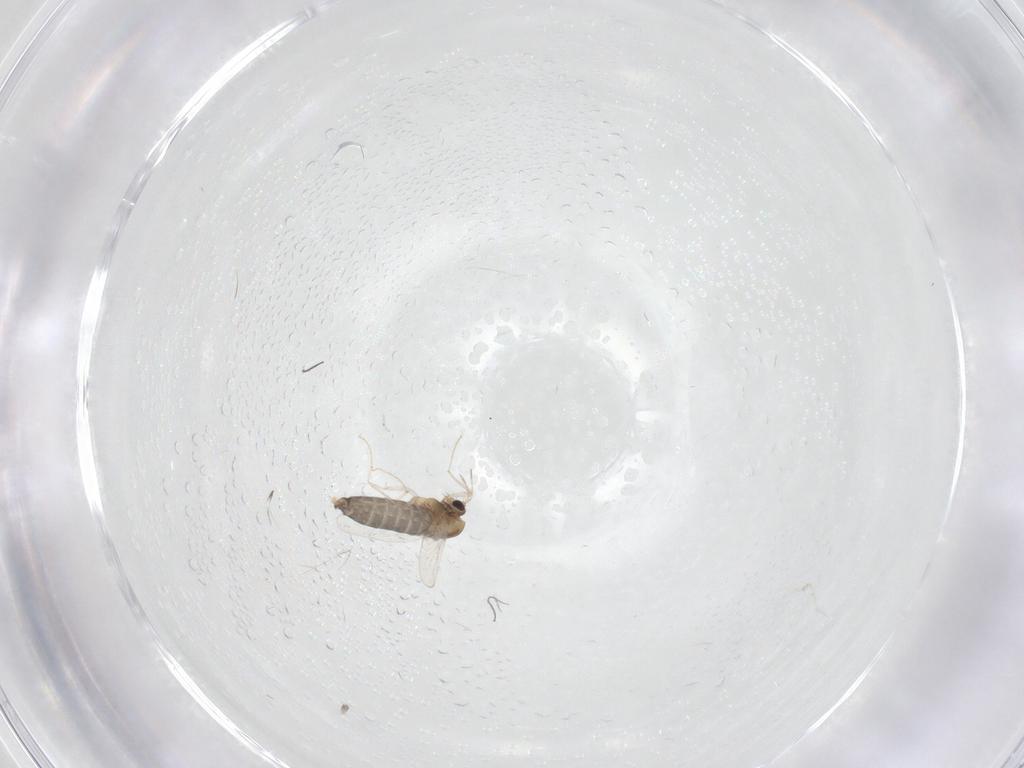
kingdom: Animalia
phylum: Arthropoda
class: Insecta
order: Diptera
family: Chironomidae
